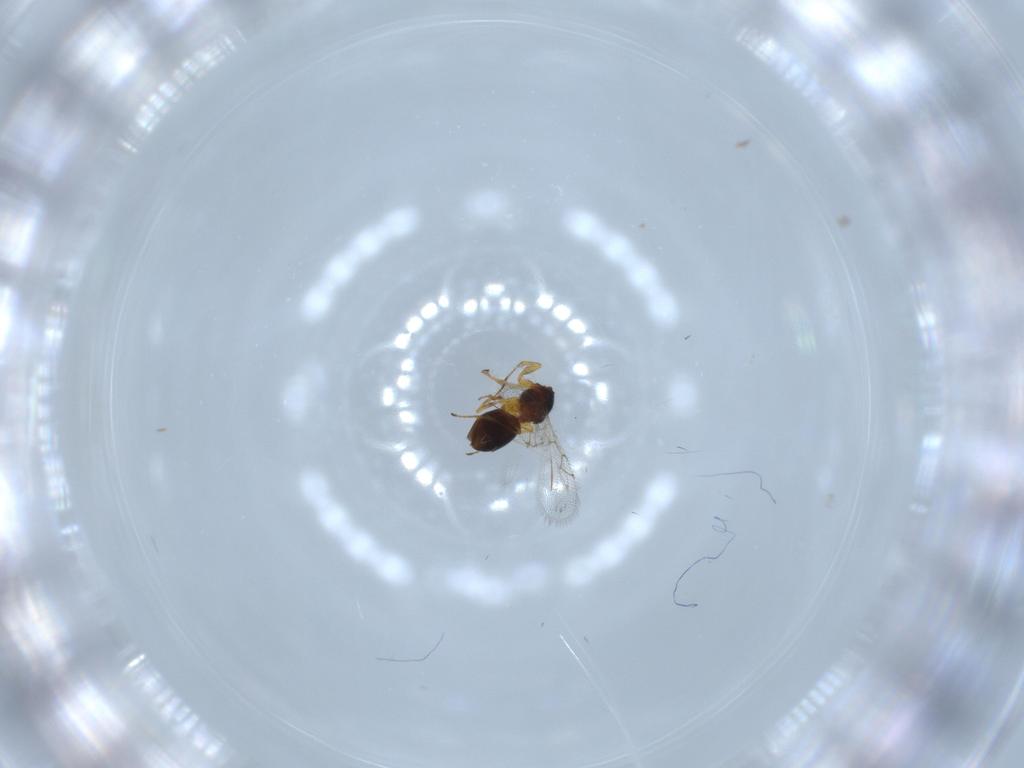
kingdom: Animalia
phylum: Arthropoda
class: Insecta
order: Hymenoptera
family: Figitidae
